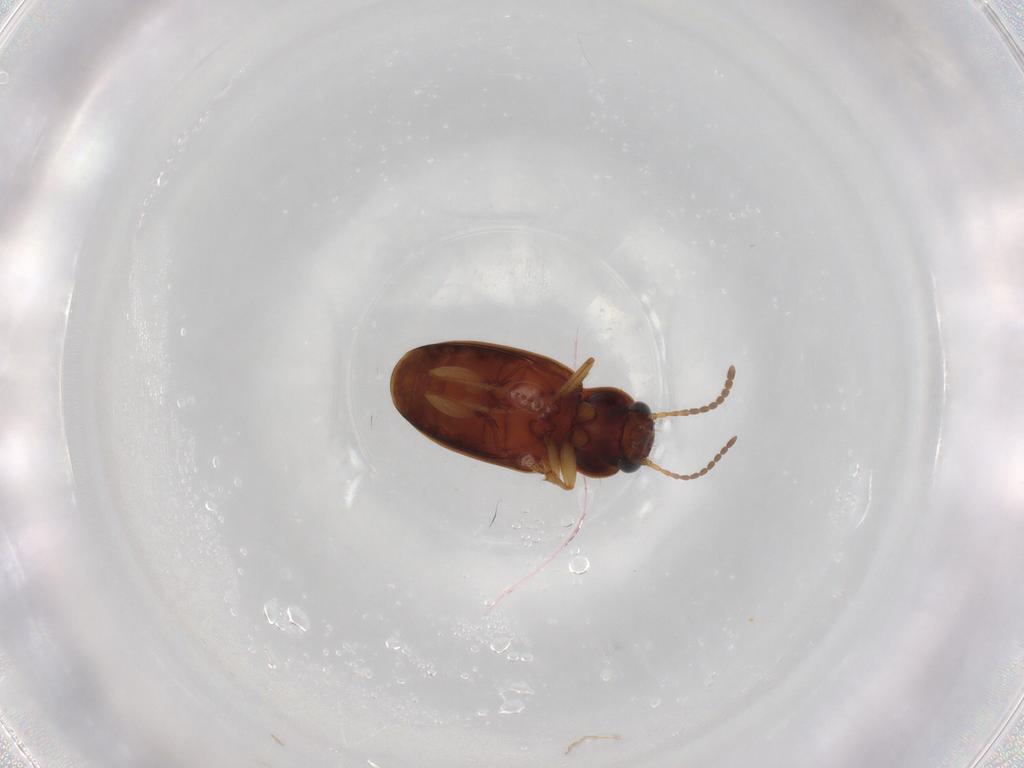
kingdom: Animalia
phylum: Arthropoda
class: Insecta
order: Coleoptera
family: Carabidae
